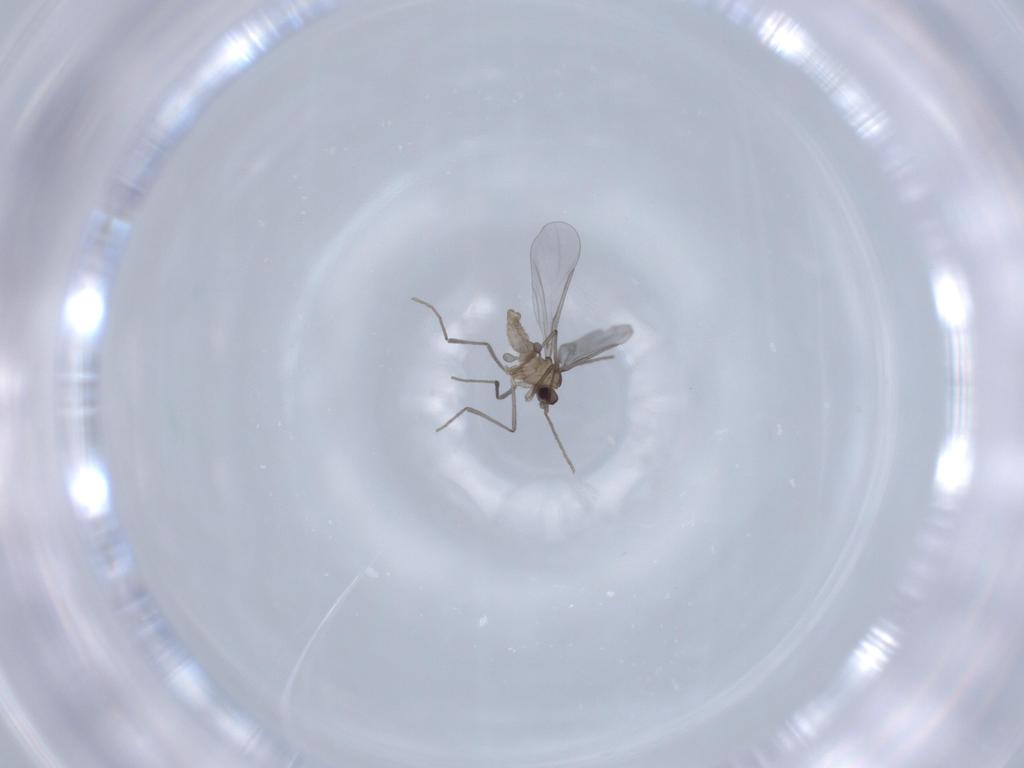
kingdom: Animalia
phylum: Arthropoda
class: Insecta
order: Diptera
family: Cecidomyiidae
